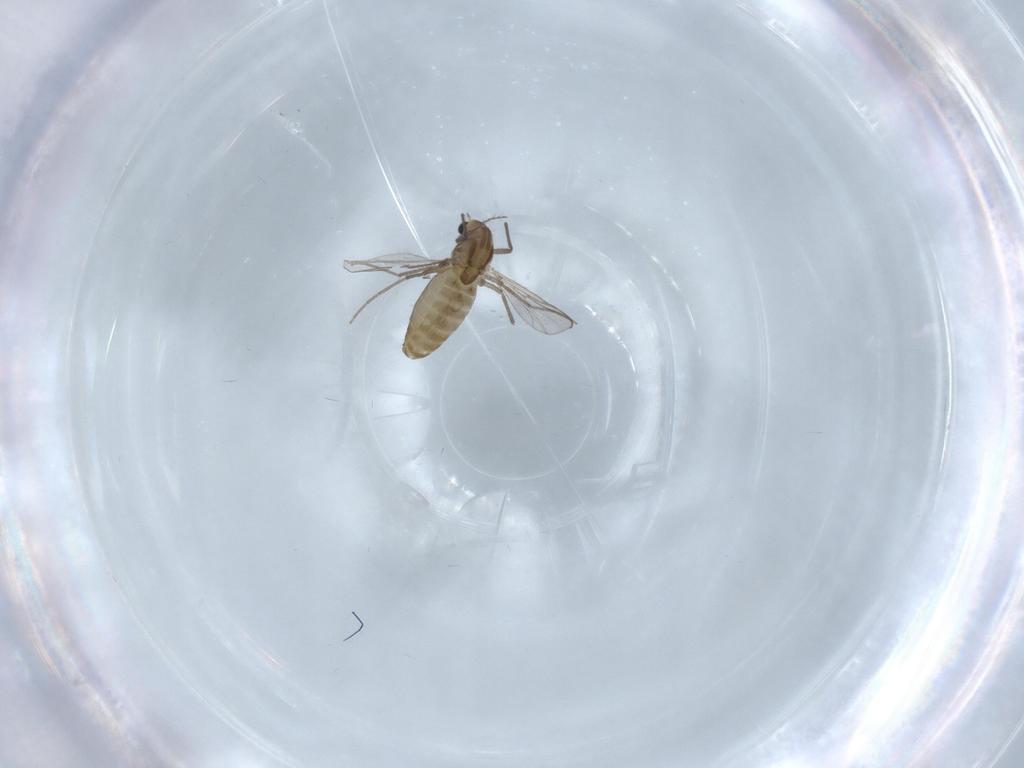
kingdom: Animalia
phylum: Arthropoda
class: Insecta
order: Diptera
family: Chironomidae
